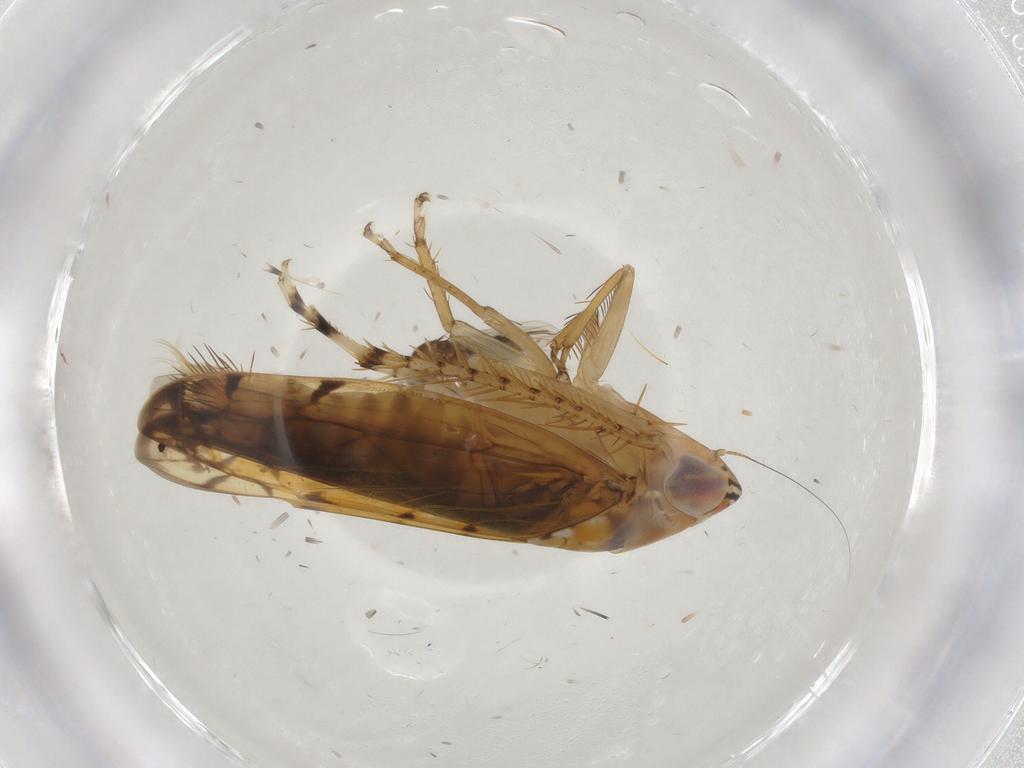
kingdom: Animalia
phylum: Arthropoda
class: Insecta
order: Hemiptera
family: Cicadellidae
